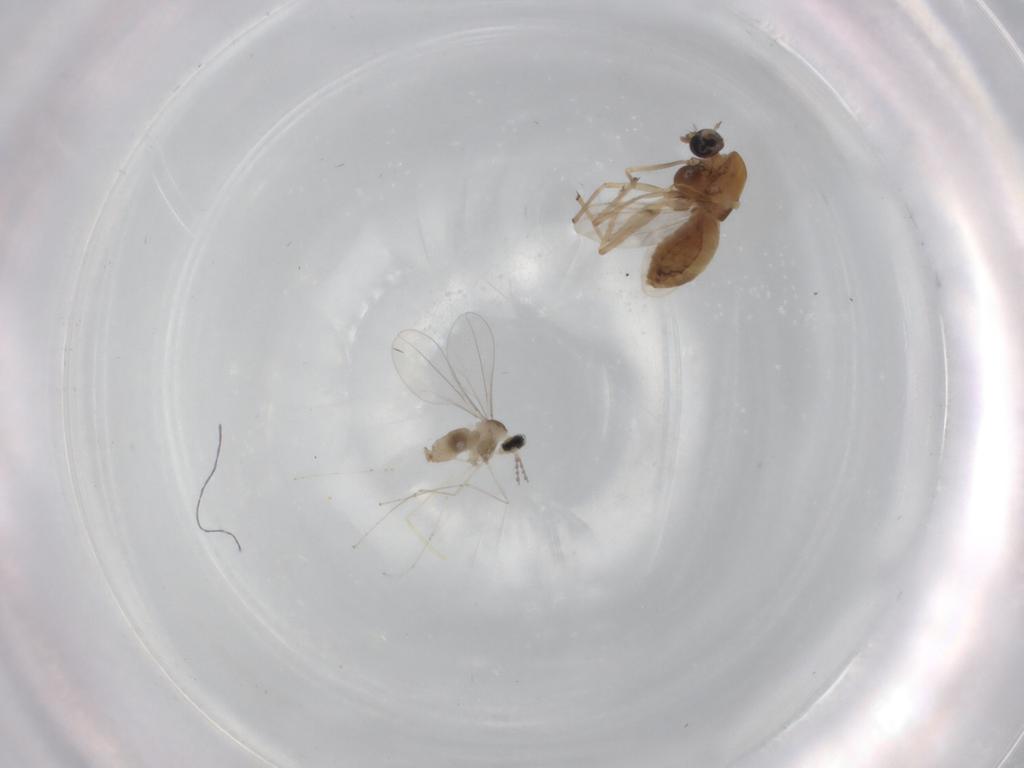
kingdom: Animalia
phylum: Arthropoda
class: Insecta
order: Diptera
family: Chironomidae
